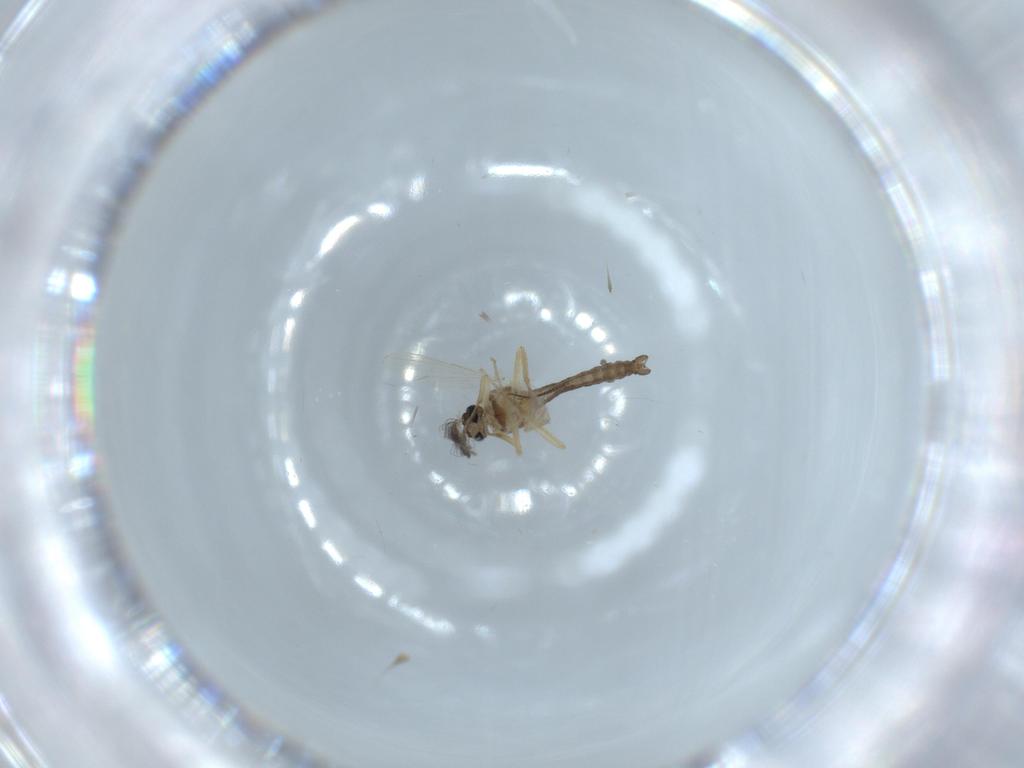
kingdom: Animalia
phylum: Arthropoda
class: Insecta
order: Diptera
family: Ceratopogonidae
